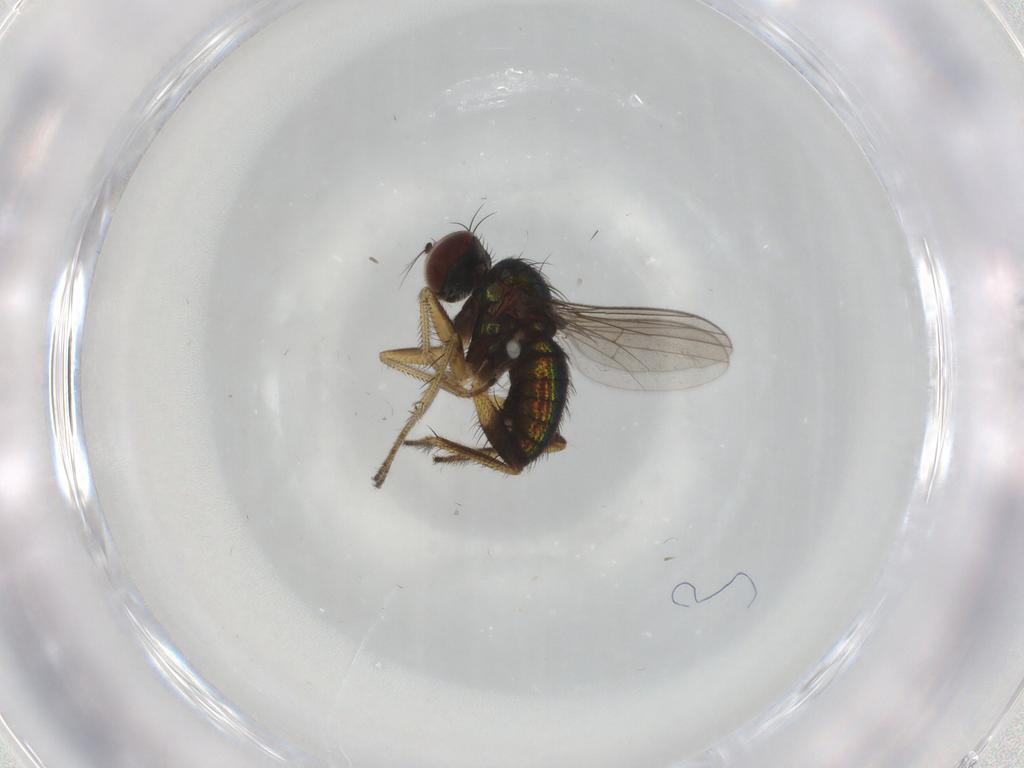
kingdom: Animalia
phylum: Arthropoda
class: Insecta
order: Diptera
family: Dolichopodidae
